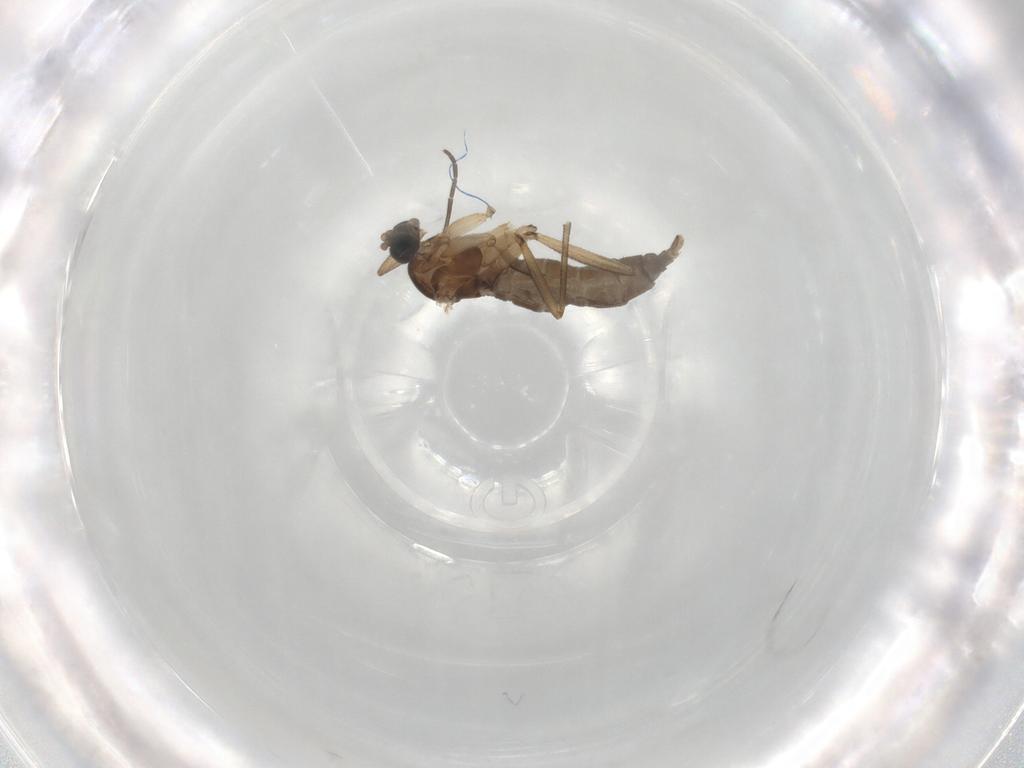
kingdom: Animalia
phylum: Arthropoda
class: Insecta
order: Diptera
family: Sciaridae
